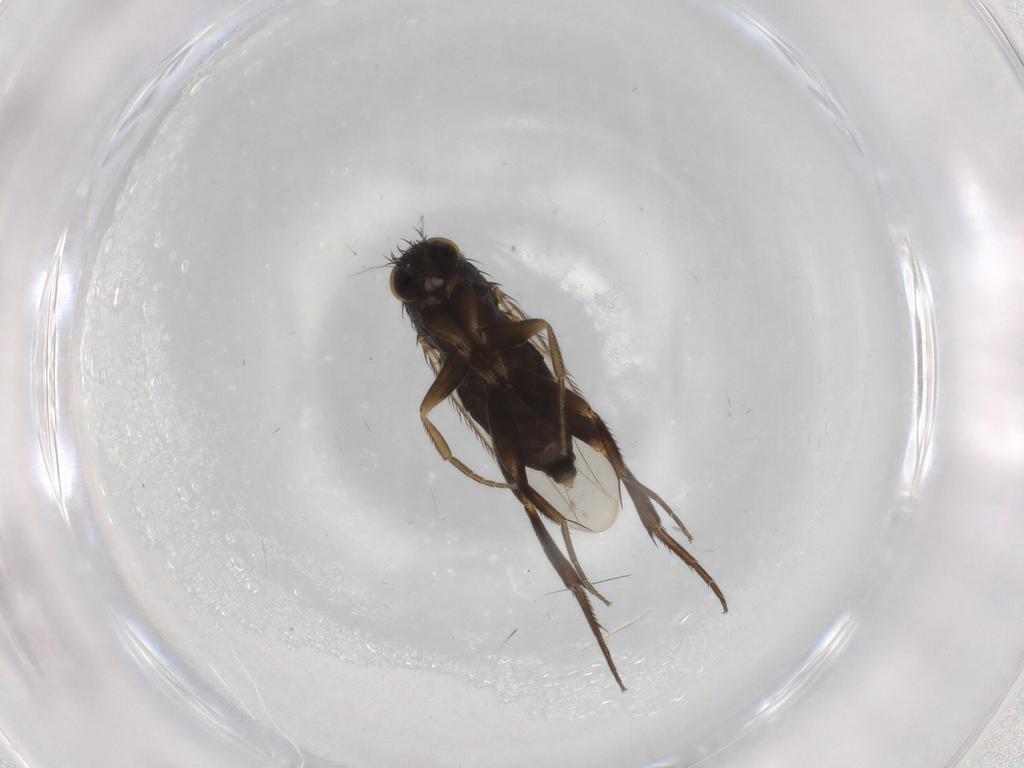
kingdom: Animalia
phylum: Arthropoda
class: Insecta
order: Diptera
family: Phoridae
